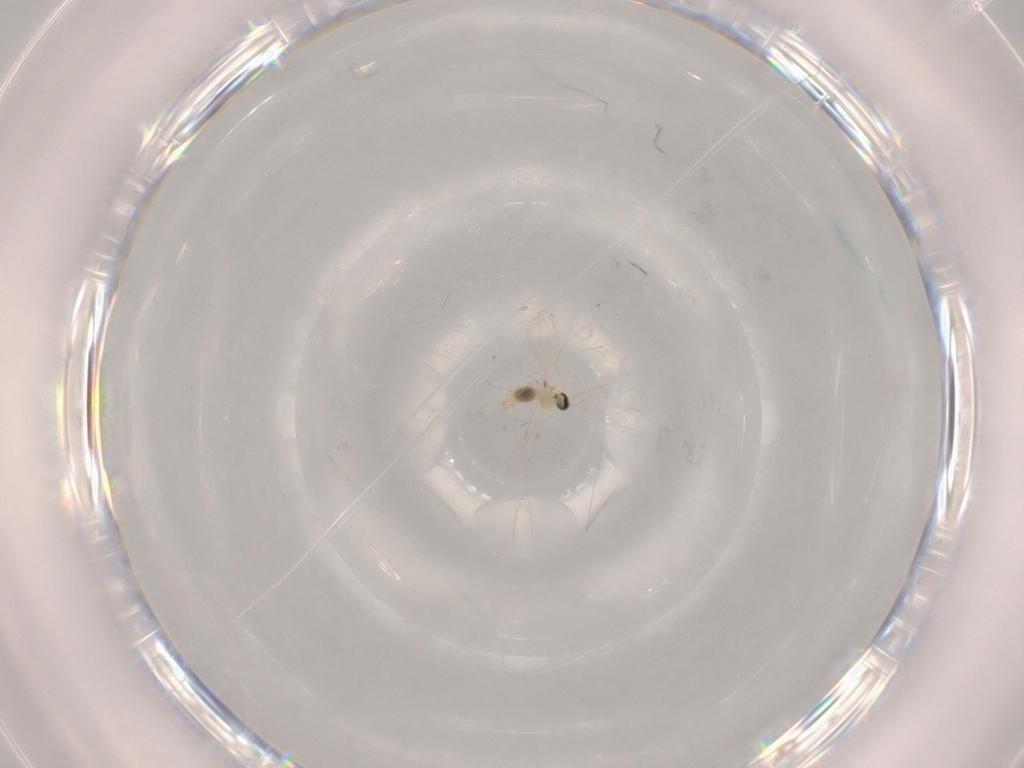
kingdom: Animalia
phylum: Arthropoda
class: Insecta
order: Diptera
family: Cecidomyiidae
